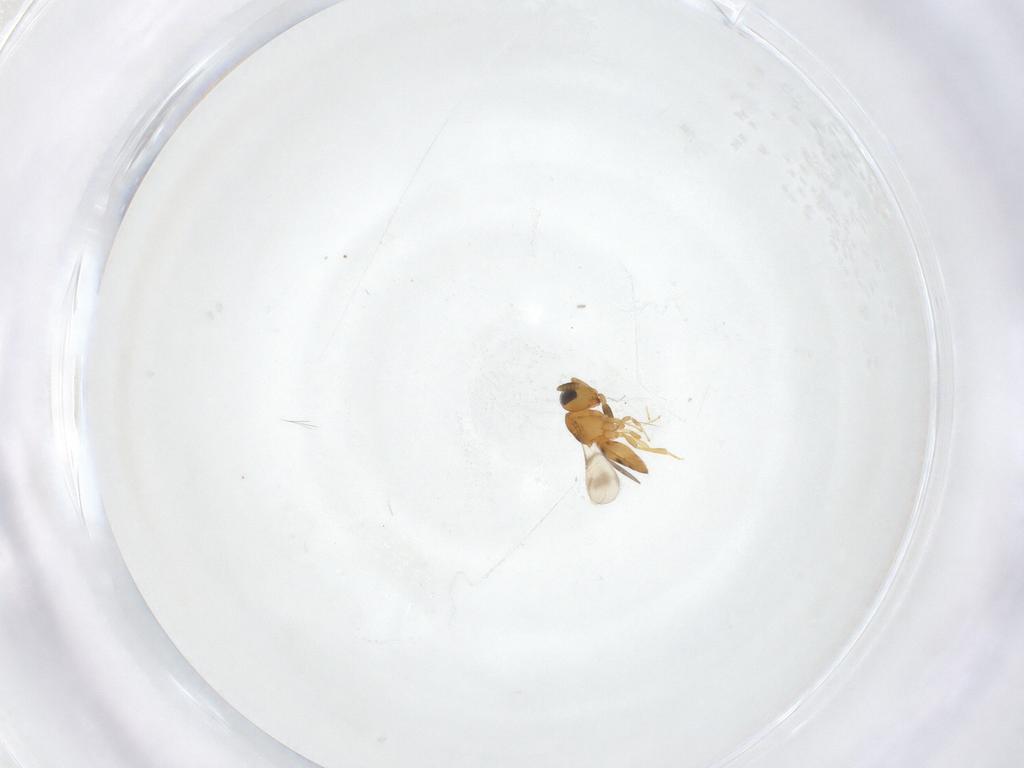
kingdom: Animalia
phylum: Arthropoda
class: Insecta
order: Hymenoptera
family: Scelionidae
